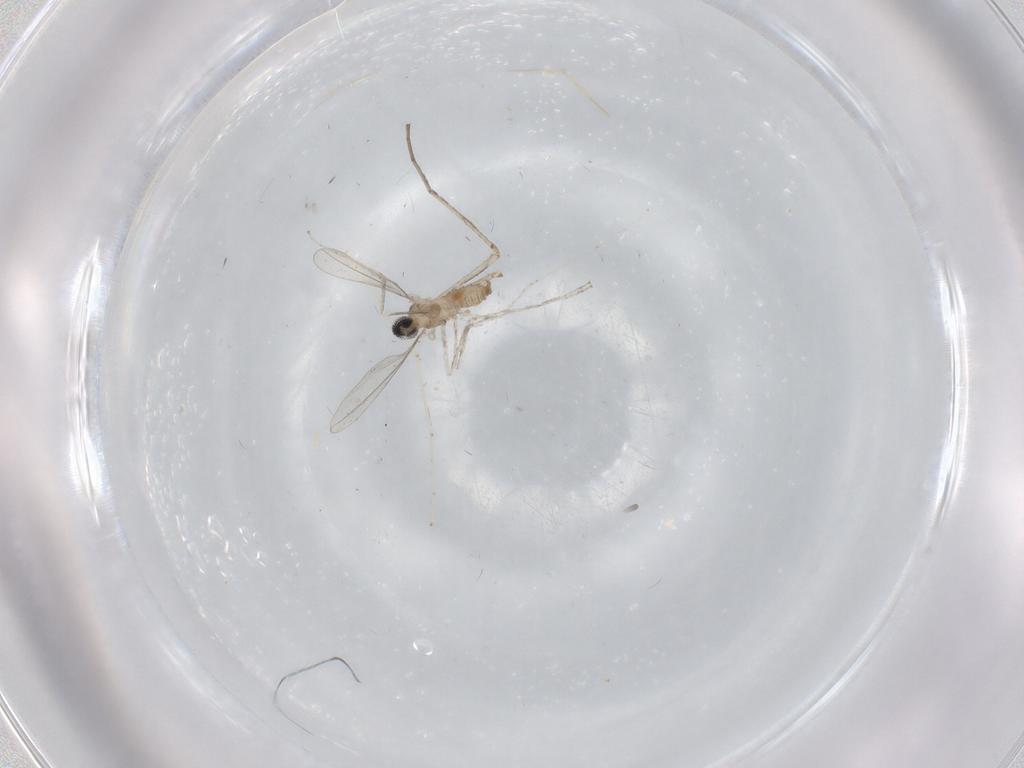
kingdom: Animalia
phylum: Arthropoda
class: Insecta
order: Diptera
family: Cecidomyiidae
